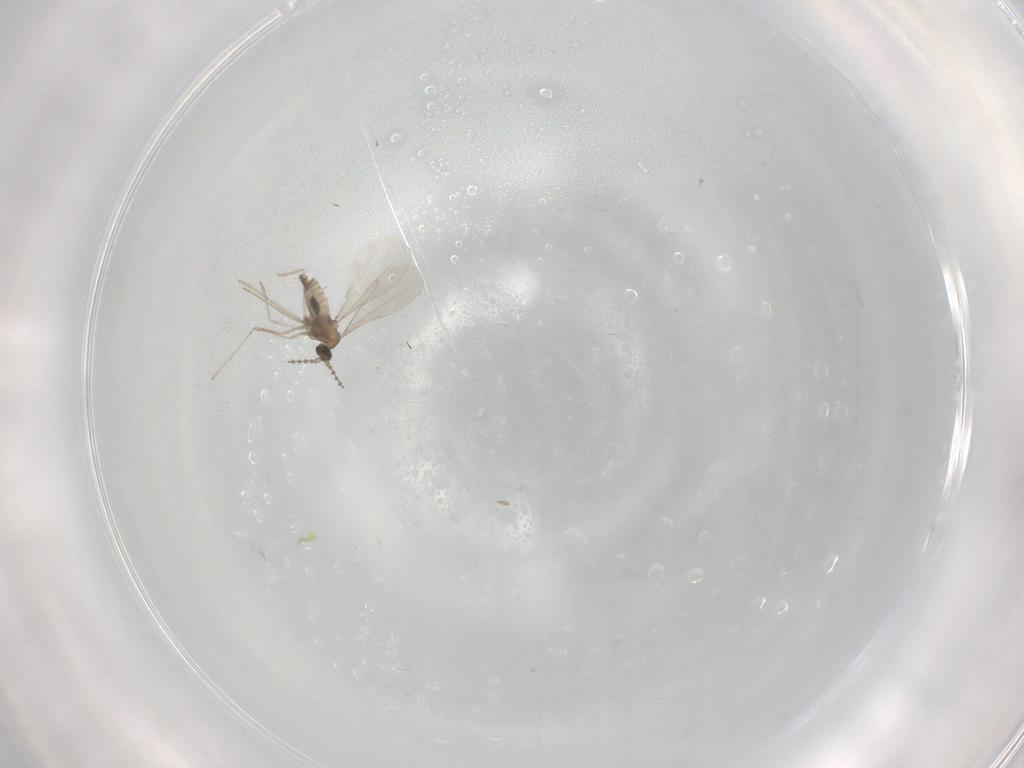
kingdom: Animalia
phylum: Arthropoda
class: Insecta
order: Diptera
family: Cecidomyiidae
